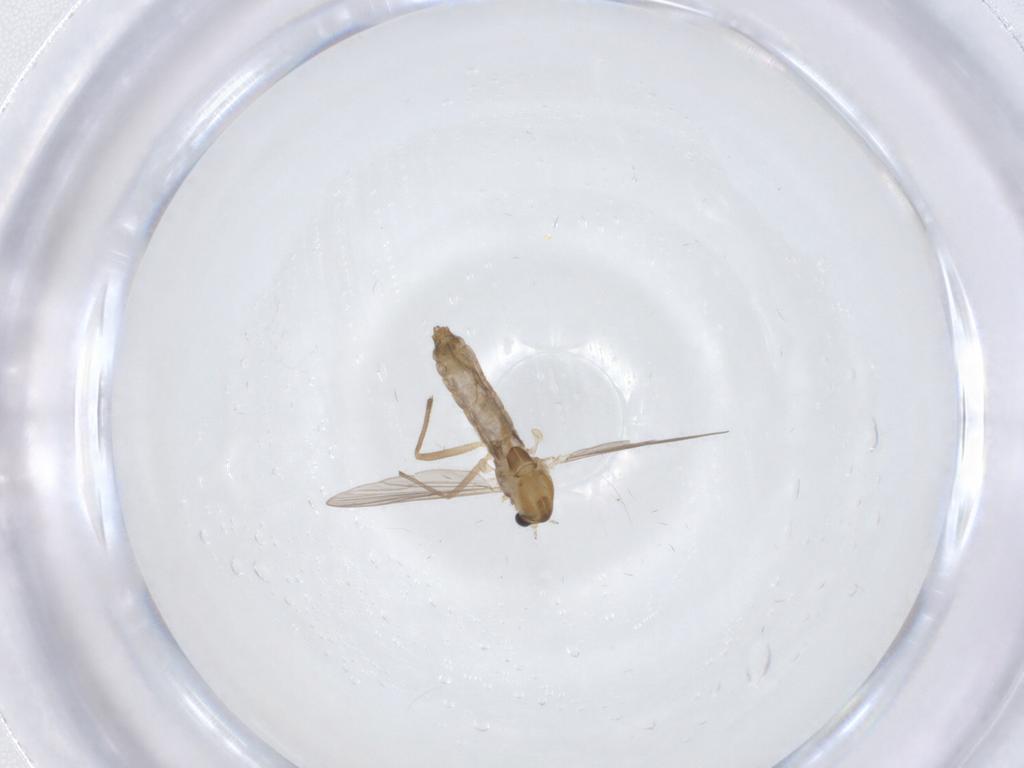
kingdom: Animalia
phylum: Arthropoda
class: Insecta
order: Diptera
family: Chironomidae
